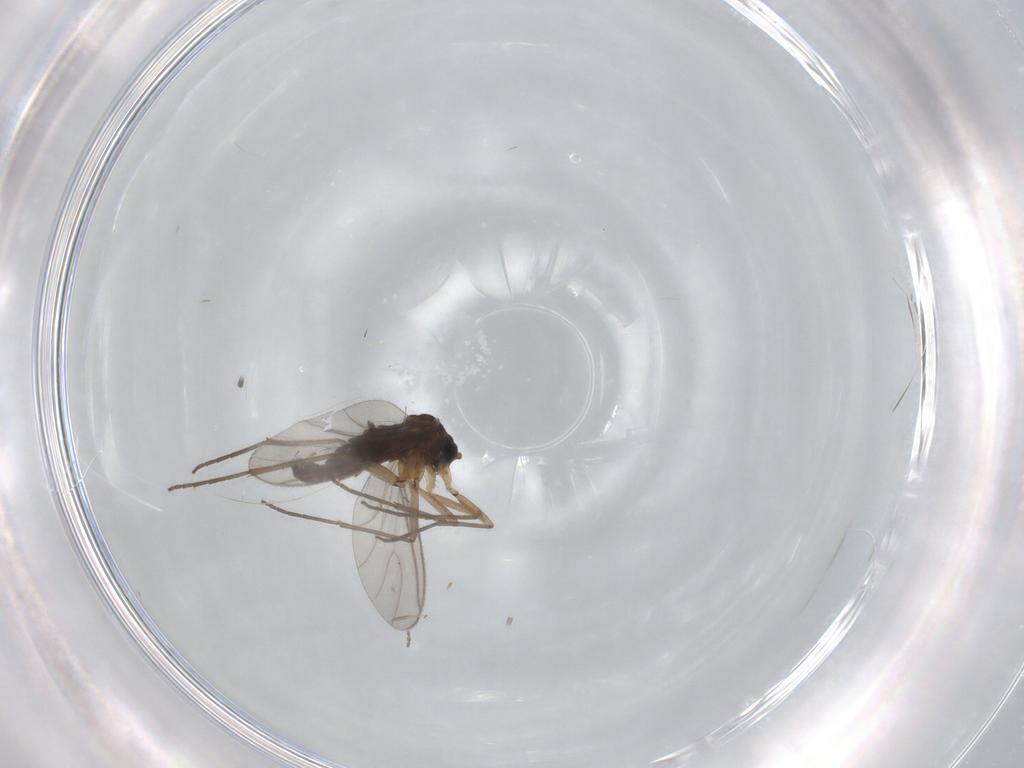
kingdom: Animalia
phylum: Arthropoda
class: Insecta
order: Diptera
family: Sciaridae
